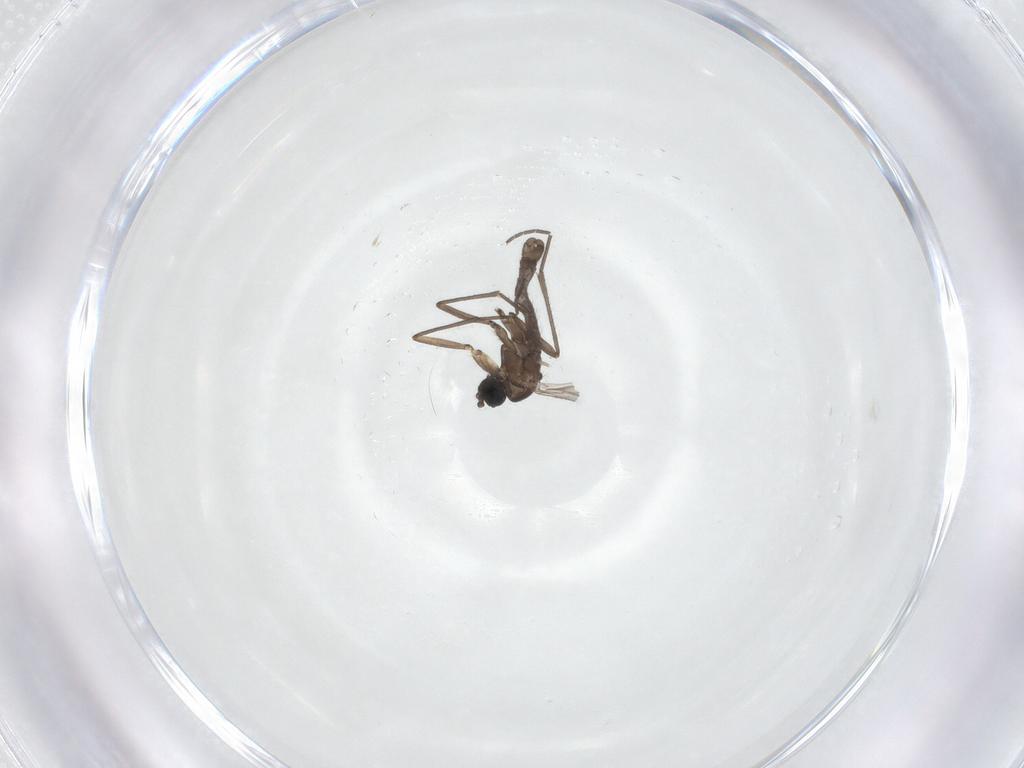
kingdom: Animalia
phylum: Arthropoda
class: Insecta
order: Diptera
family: Sciaridae
